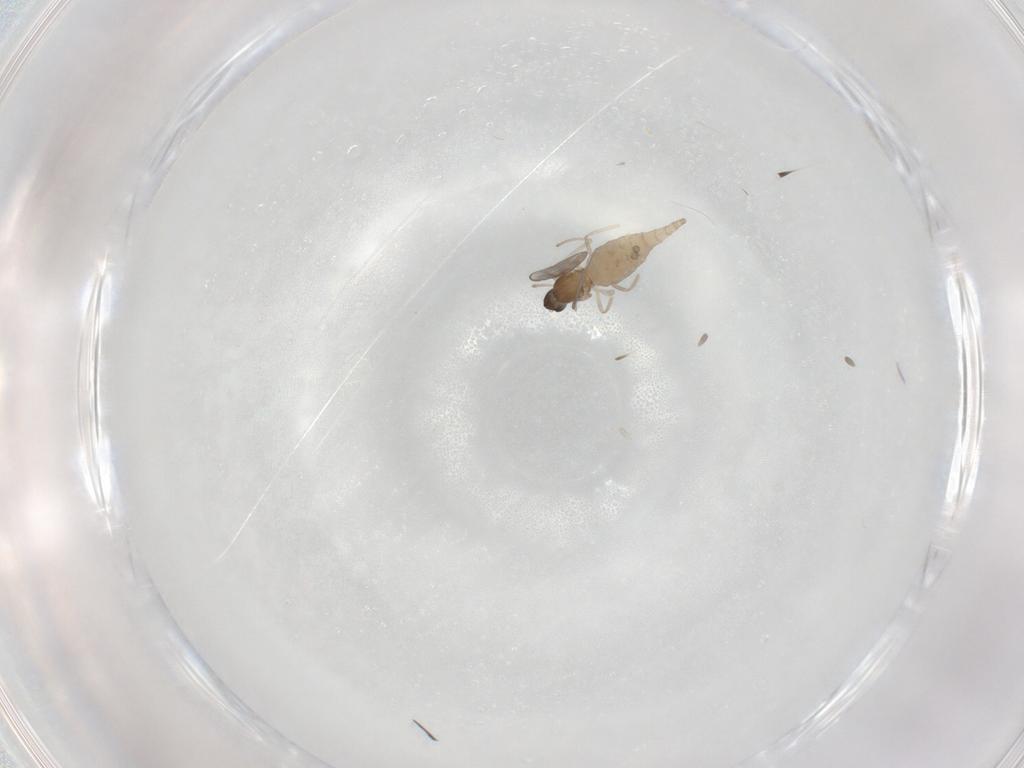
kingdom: Animalia
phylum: Arthropoda
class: Insecta
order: Diptera
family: Cecidomyiidae
